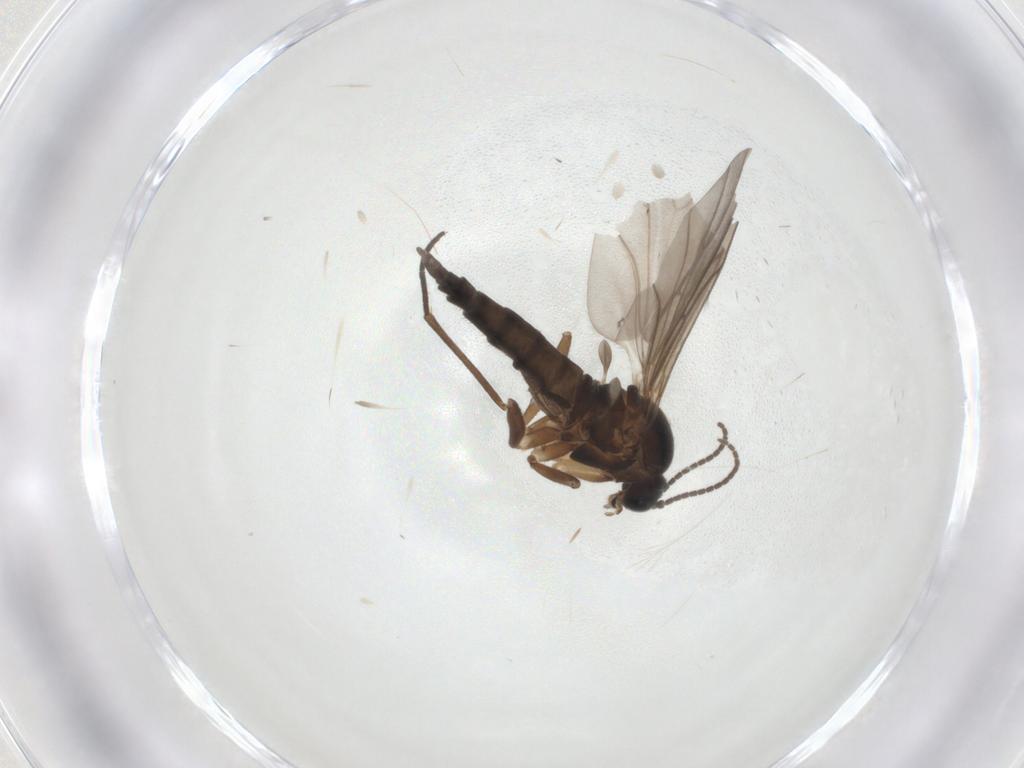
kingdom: Animalia
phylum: Arthropoda
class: Insecta
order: Diptera
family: Sciaridae
